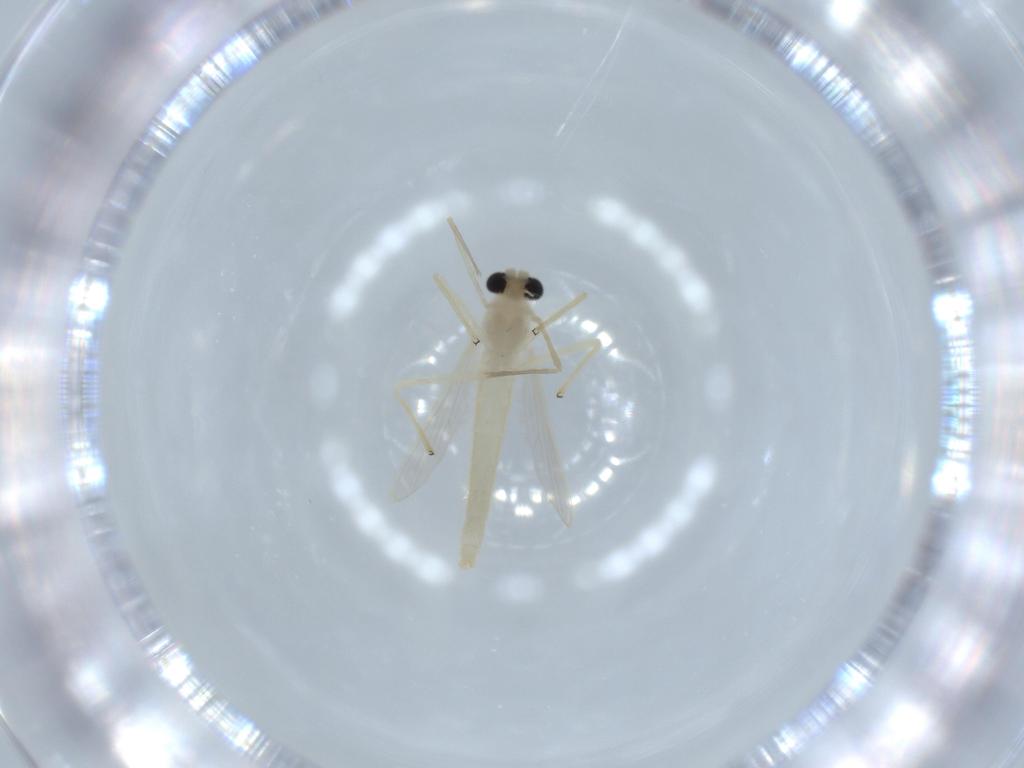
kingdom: Animalia
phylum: Arthropoda
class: Insecta
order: Diptera
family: Chironomidae
